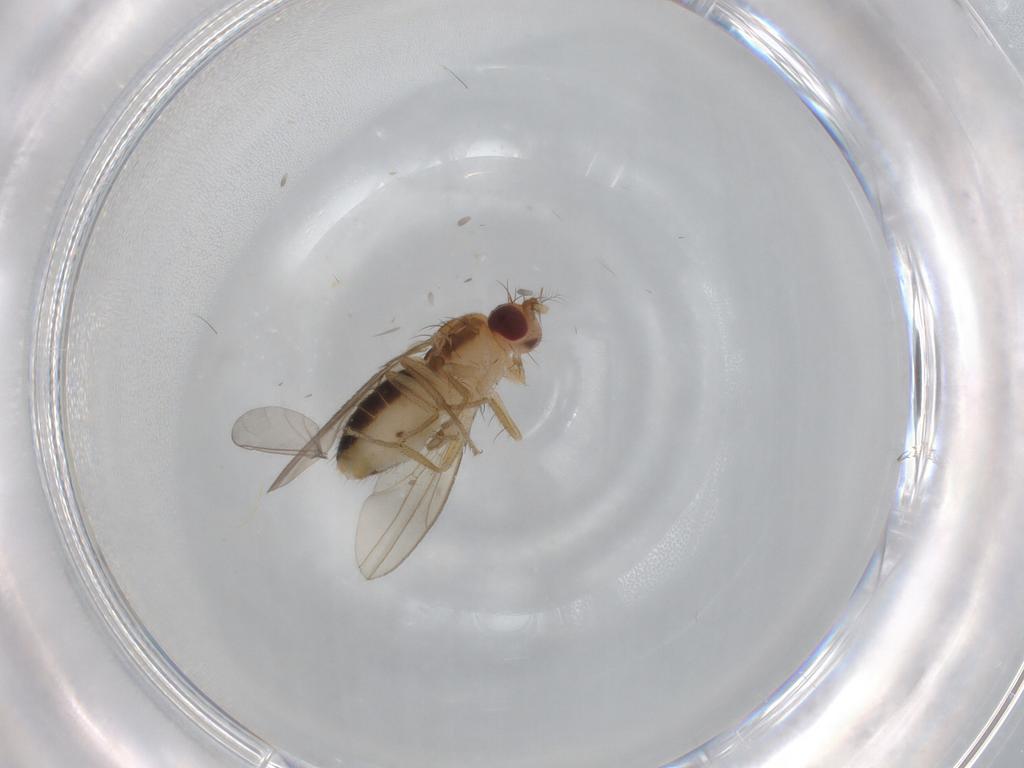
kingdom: Animalia
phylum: Arthropoda
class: Insecta
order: Diptera
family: Drosophilidae
